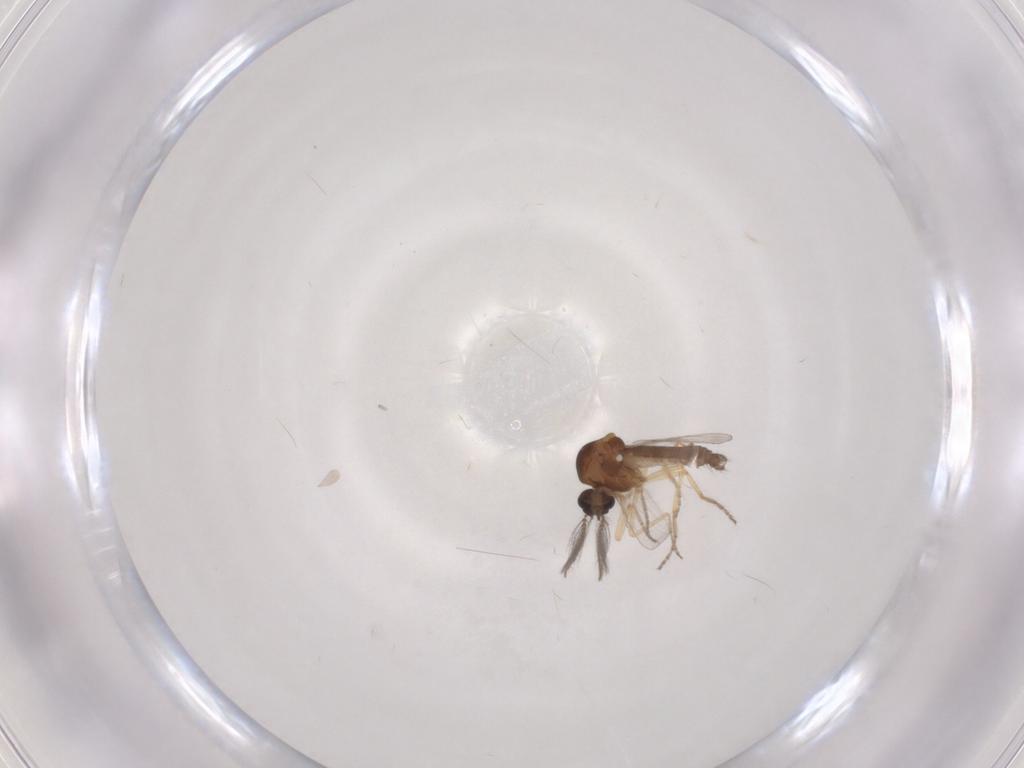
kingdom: Animalia
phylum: Arthropoda
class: Insecta
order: Diptera
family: Ceratopogonidae
